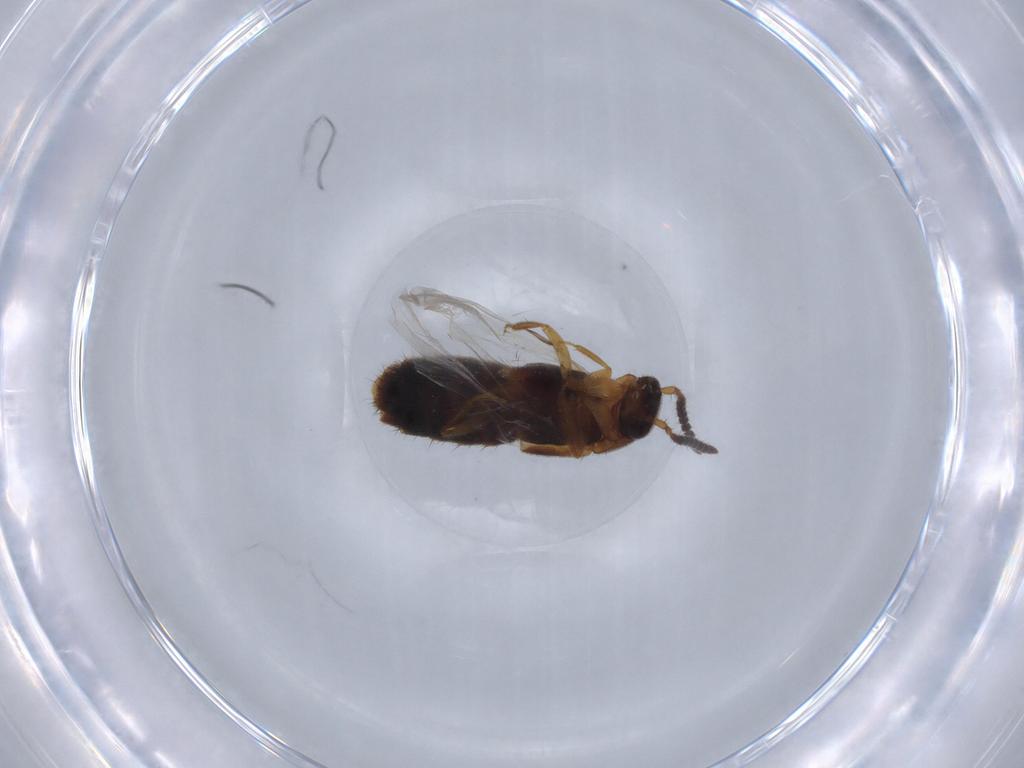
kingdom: Animalia
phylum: Arthropoda
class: Insecta
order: Coleoptera
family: Staphylinidae
